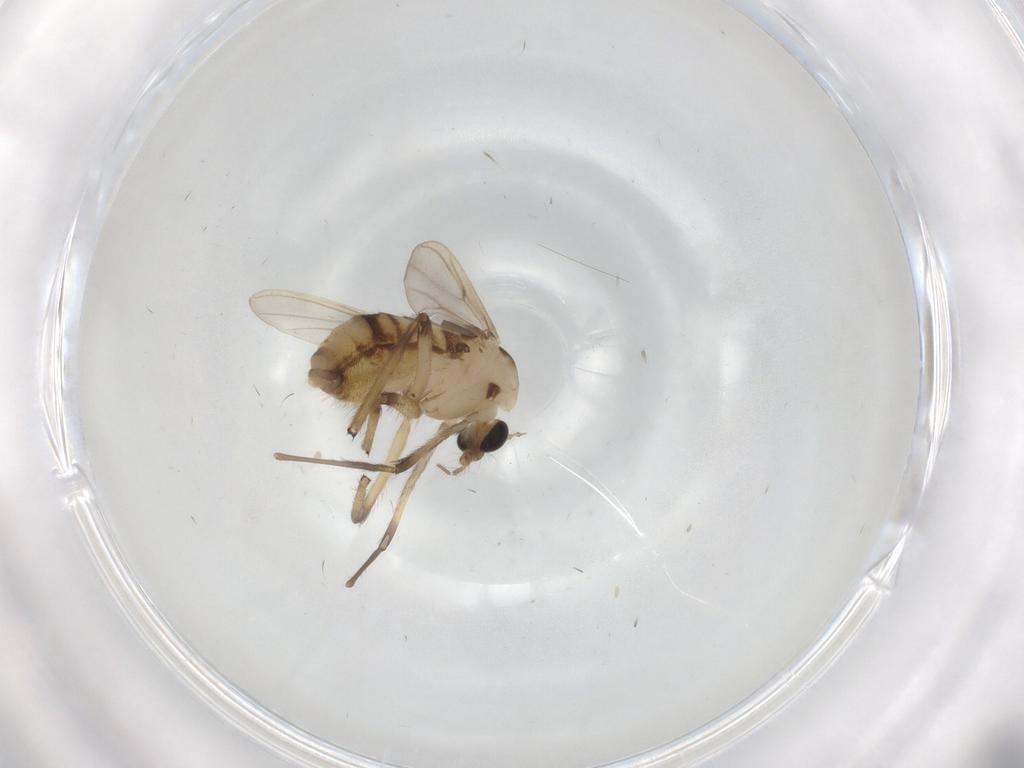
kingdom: Animalia
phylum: Arthropoda
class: Insecta
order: Diptera
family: Chironomidae
